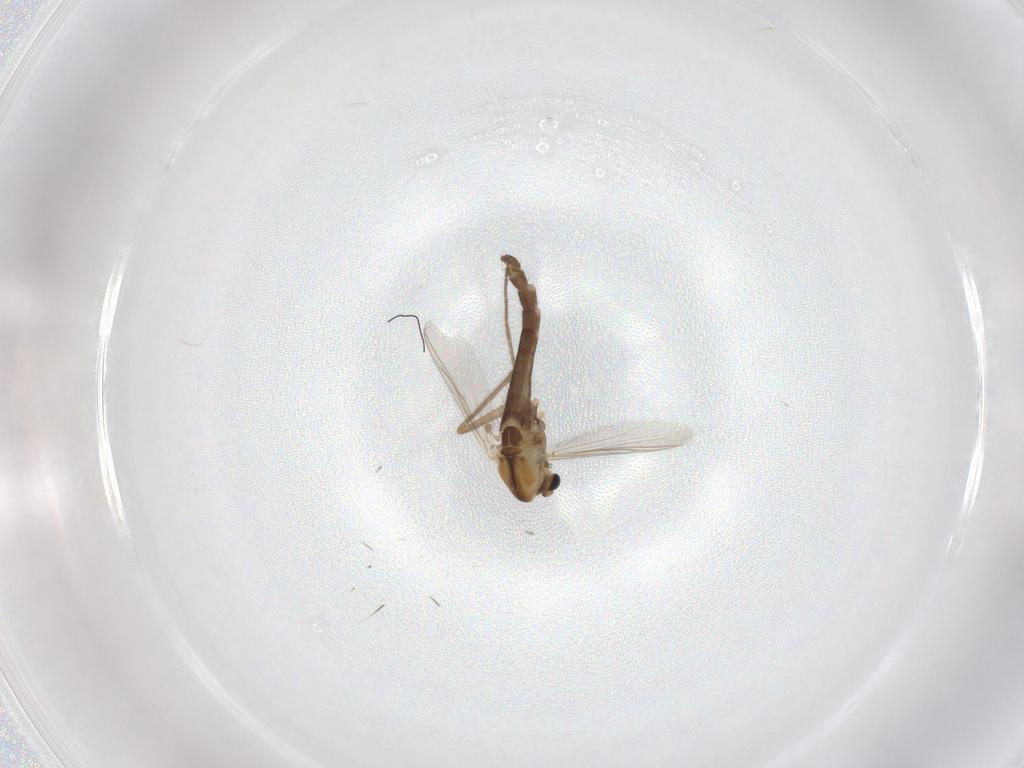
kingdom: Animalia
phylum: Arthropoda
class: Insecta
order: Diptera
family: Chironomidae
